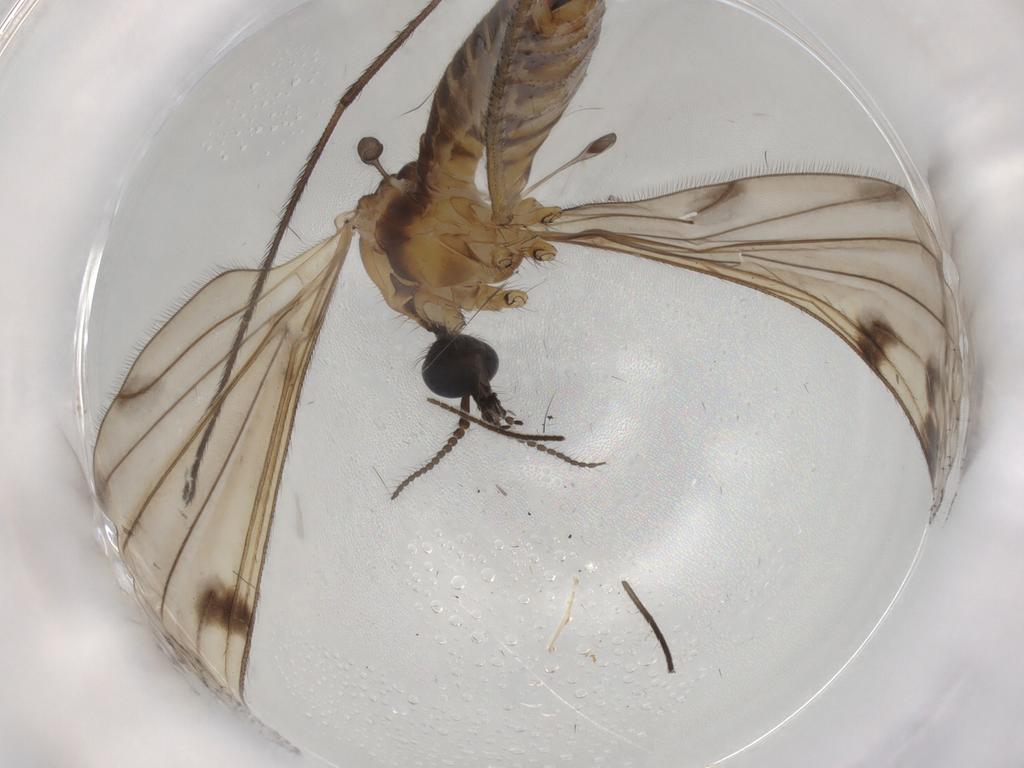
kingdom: Animalia
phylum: Arthropoda
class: Insecta
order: Diptera
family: Limoniidae
